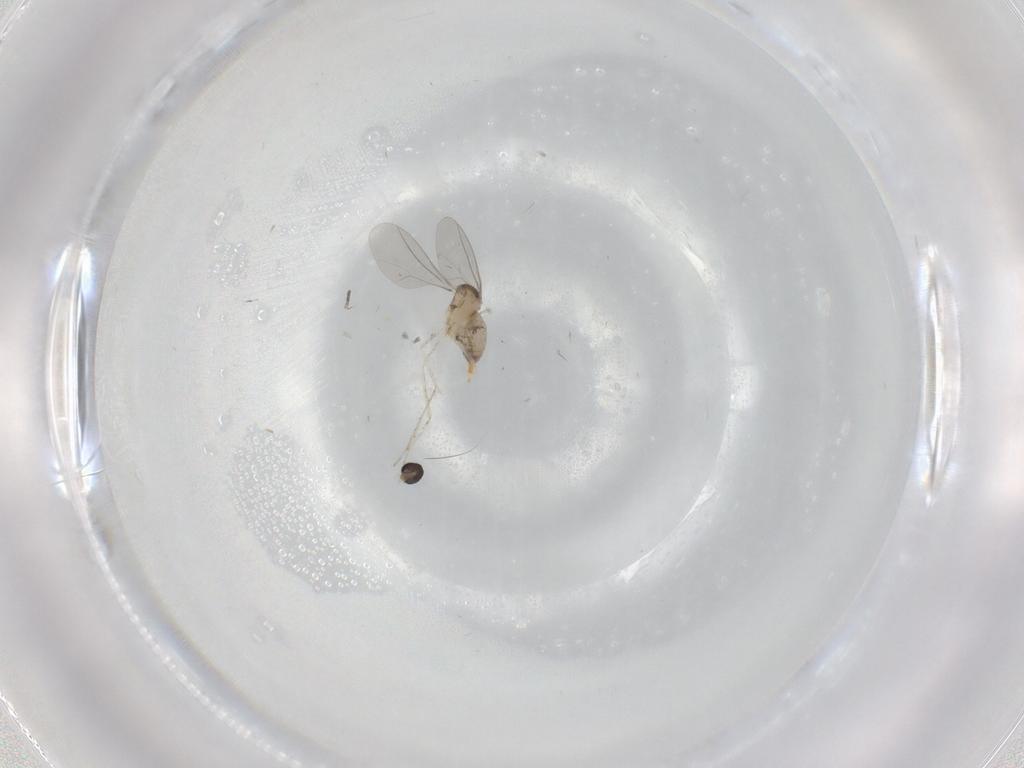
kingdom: Animalia
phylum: Arthropoda
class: Insecta
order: Diptera
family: Cecidomyiidae
